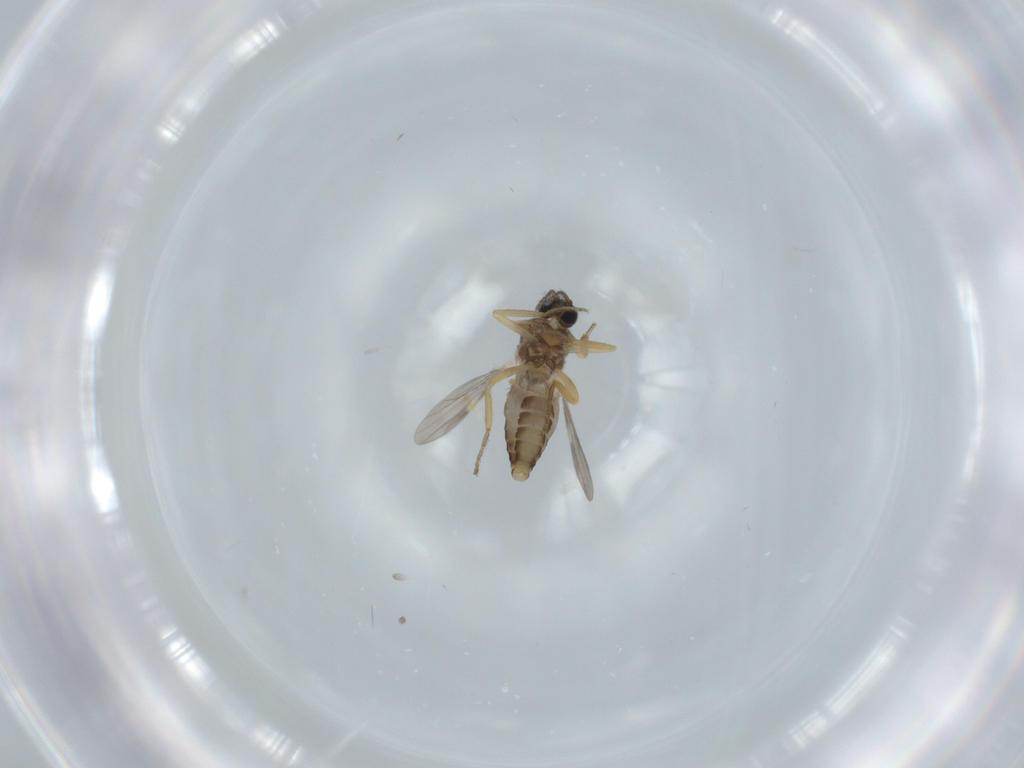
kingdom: Animalia
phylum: Arthropoda
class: Insecta
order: Diptera
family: Ceratopogonidae
